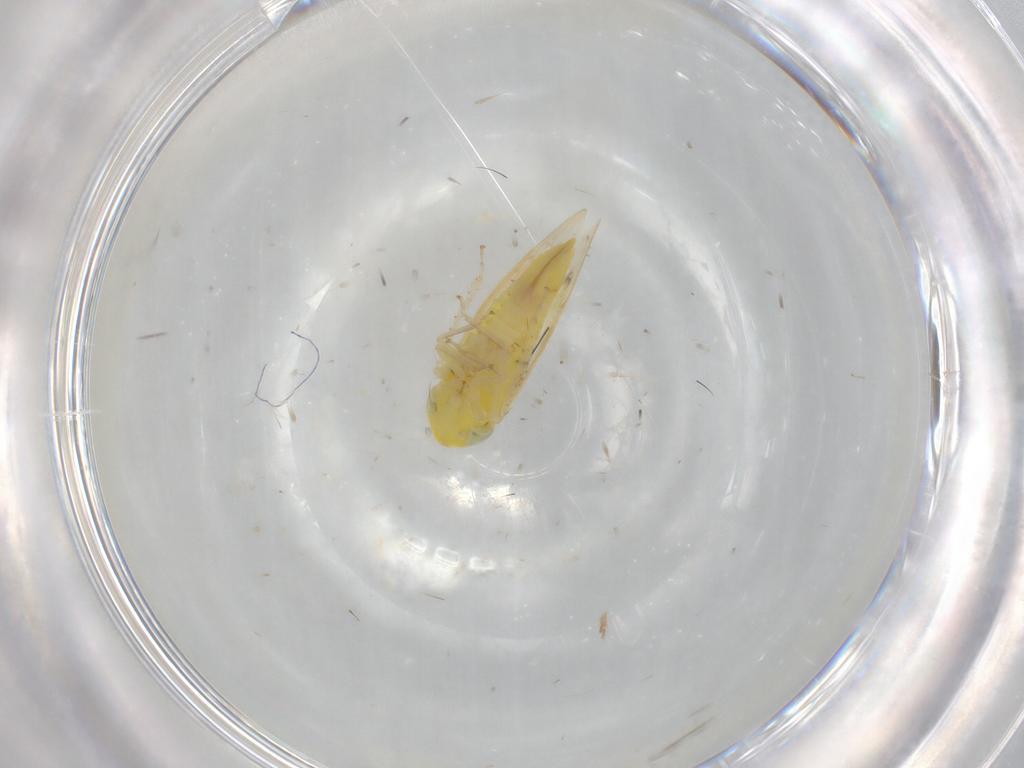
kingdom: Animalia
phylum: Arthropoda
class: Insecta
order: Hemiptera
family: Cicadellidae
